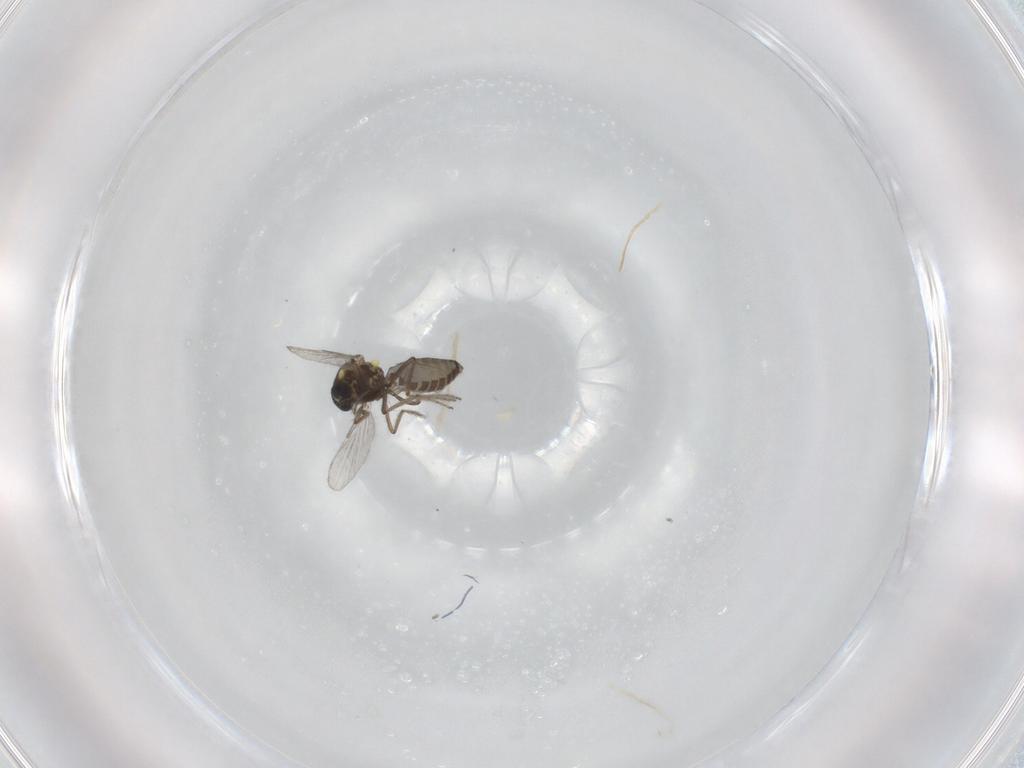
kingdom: Animalia
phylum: Arthropoda
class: Insecta
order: Diptera
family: Ceratopogonidae
